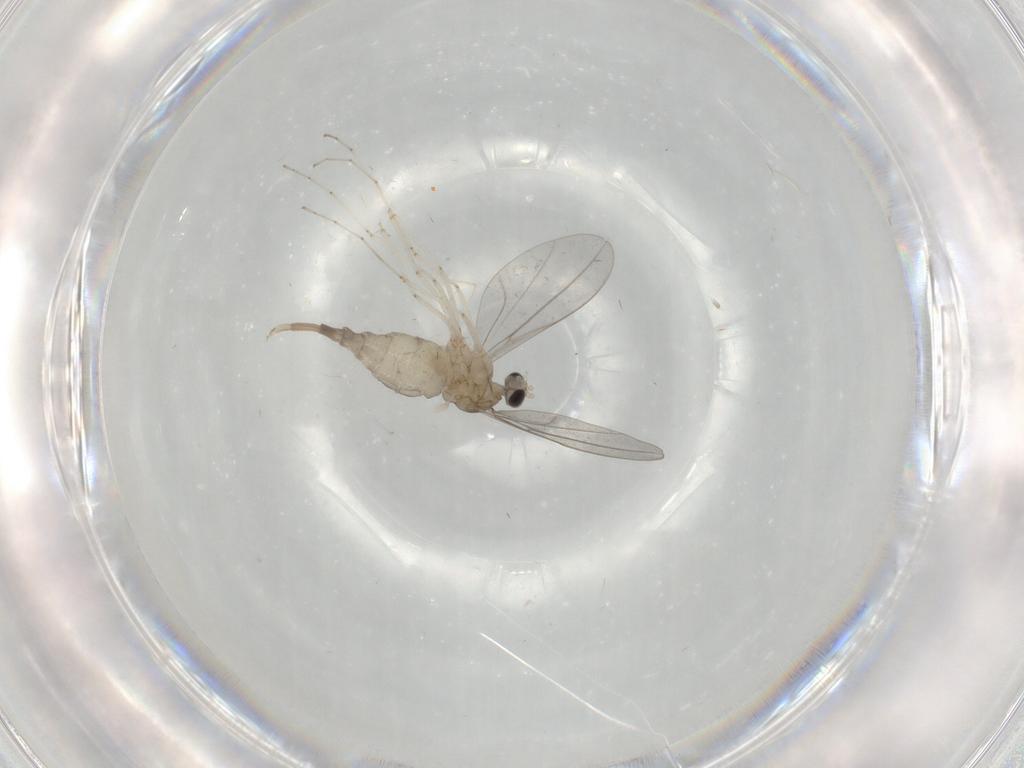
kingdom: Animalia
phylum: Arthropoda
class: Insecta
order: Diptera
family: Cecidomyiidae
